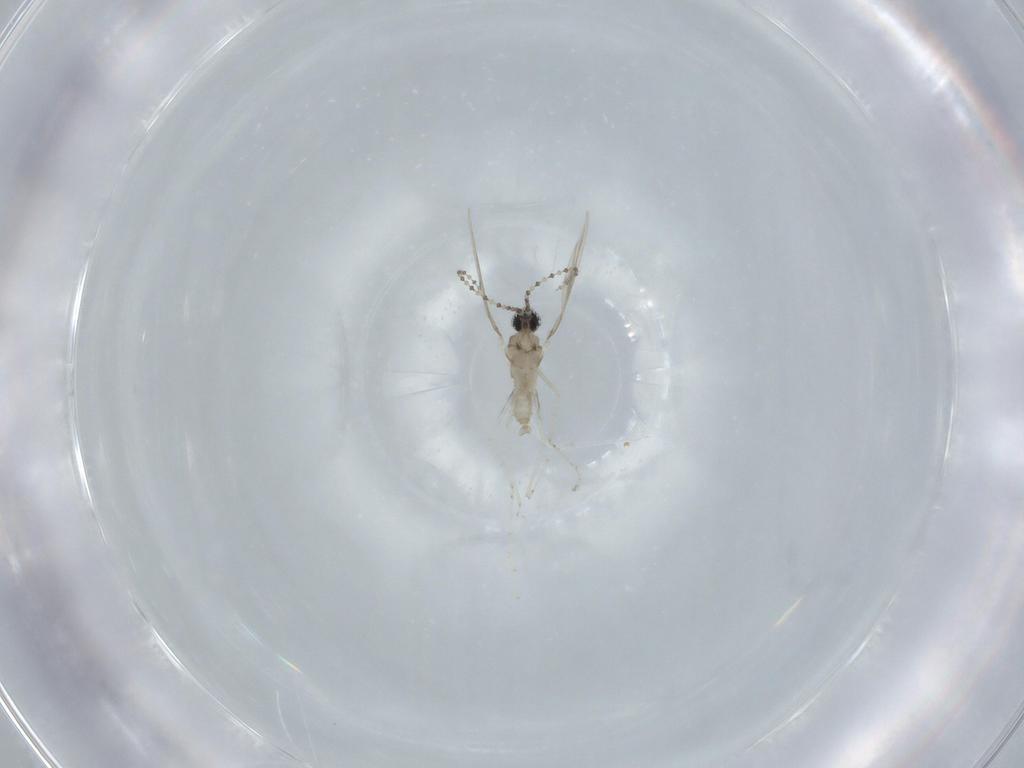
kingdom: Animalia
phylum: Arthropoda
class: Insecta
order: Diptera
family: Cecidomyiidae
